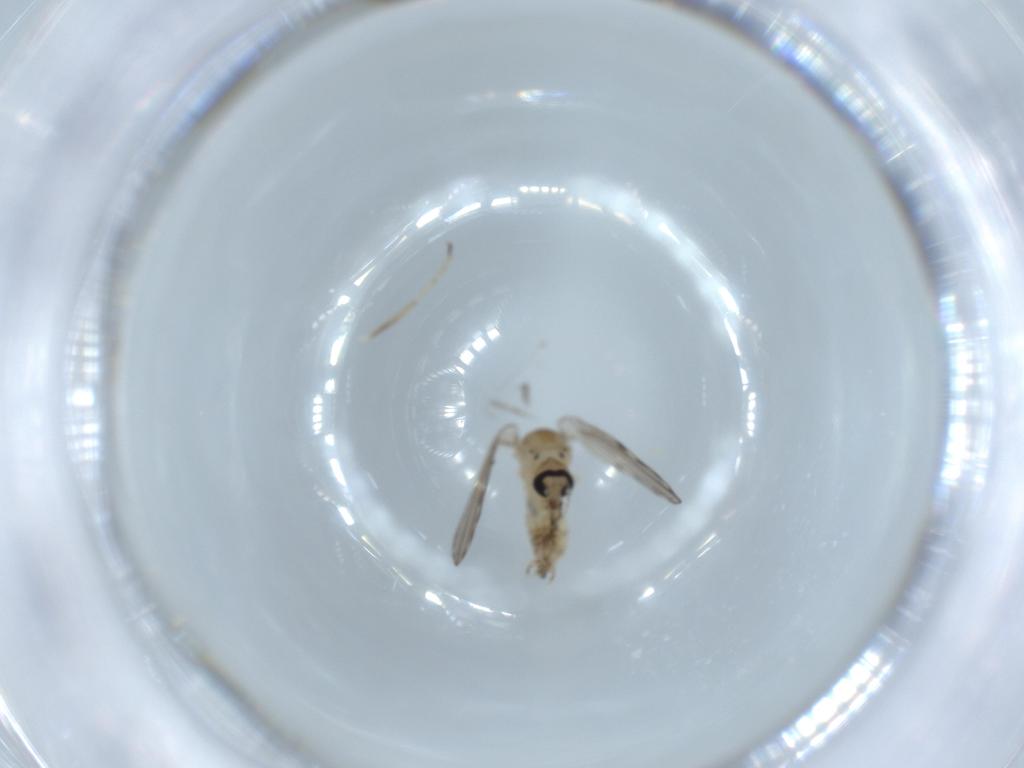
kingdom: Animalia
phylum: Arthropoda
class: Insecta
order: Diptera
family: Psychodidae
